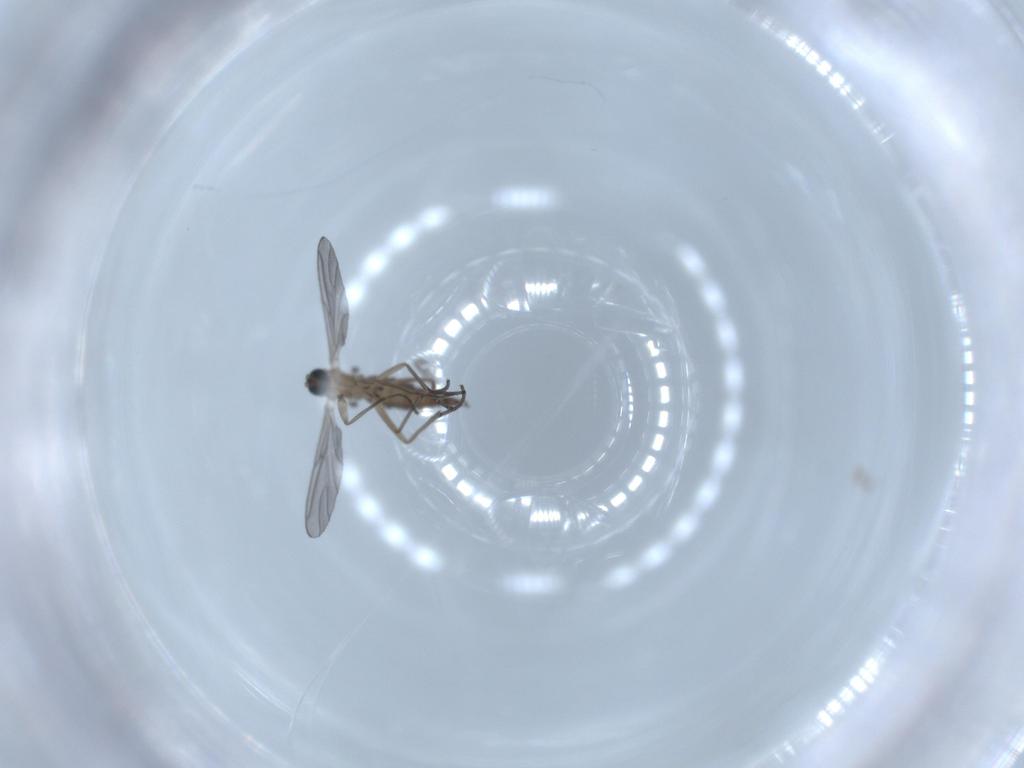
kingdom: Animalia
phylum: Arthropoda
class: Insecta
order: Diptera
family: Sciaridae
